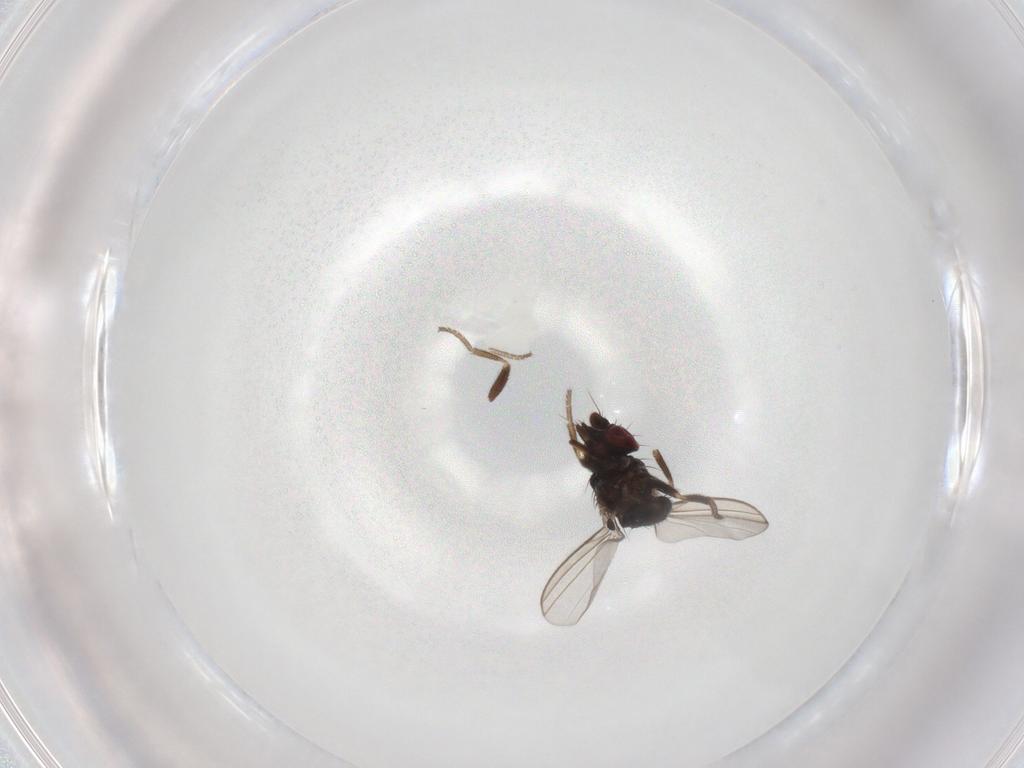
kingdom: Animalia
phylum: Arthropoda
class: Insecta
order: Diptera
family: Milichiidae
